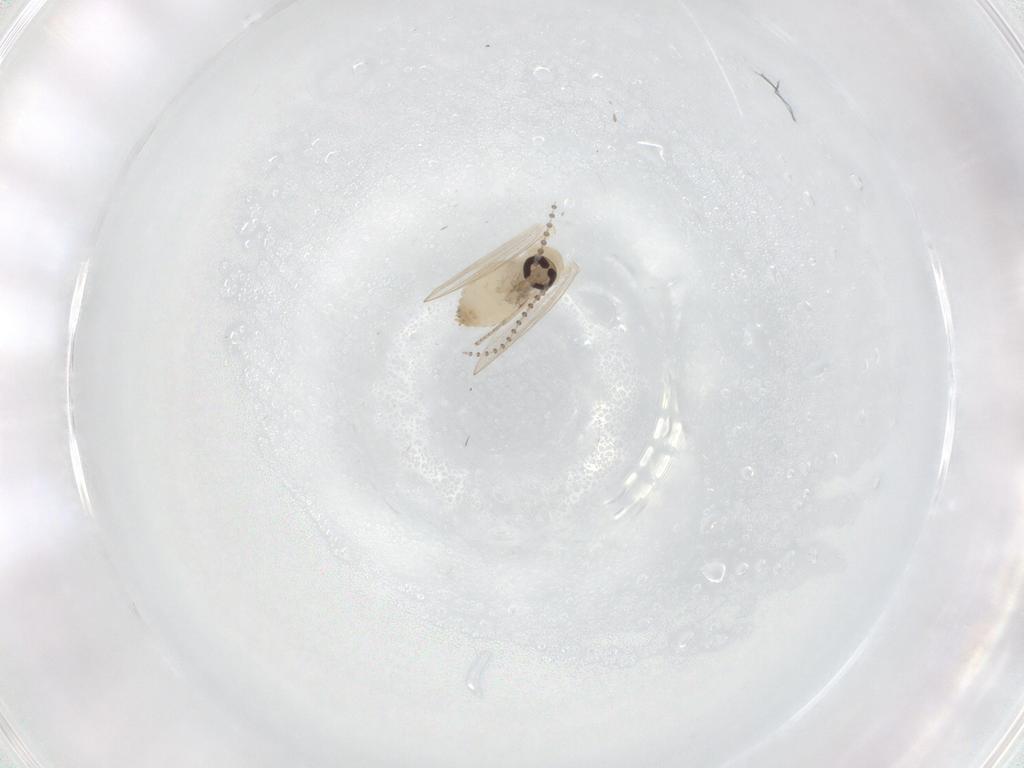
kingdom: Animalia
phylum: Arthropoda
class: Insecta
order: Diptera
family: Psychodidae
